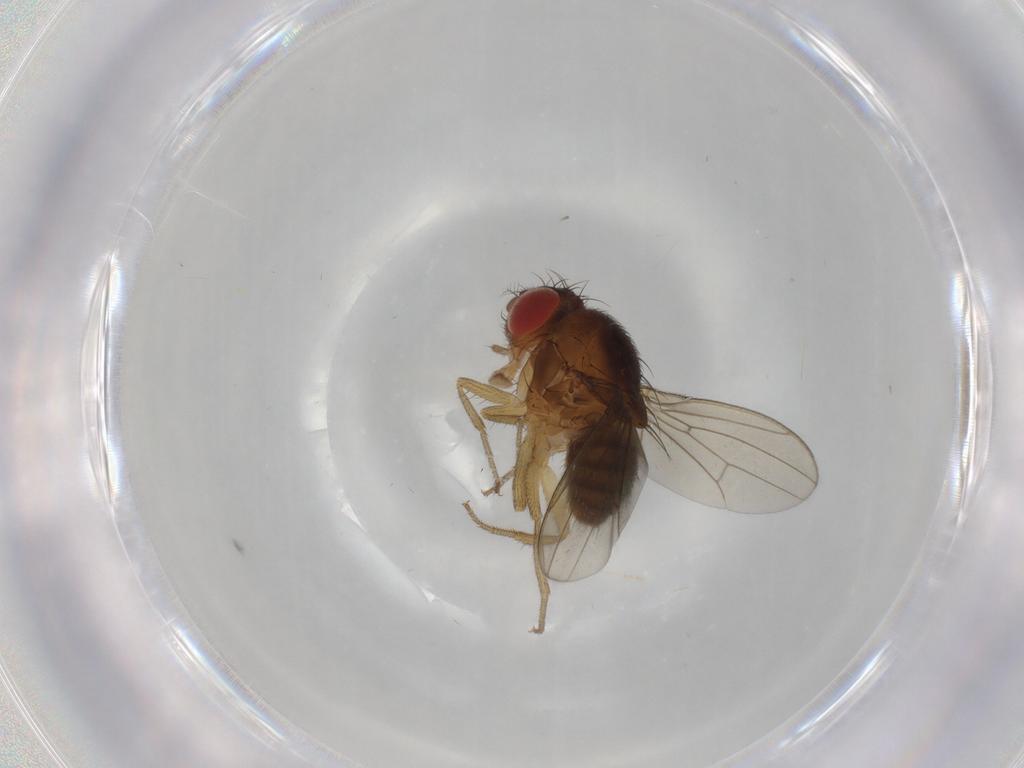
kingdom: Animalia
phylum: Arthropoda
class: Insecta
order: Diptera
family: Drosophilidae
